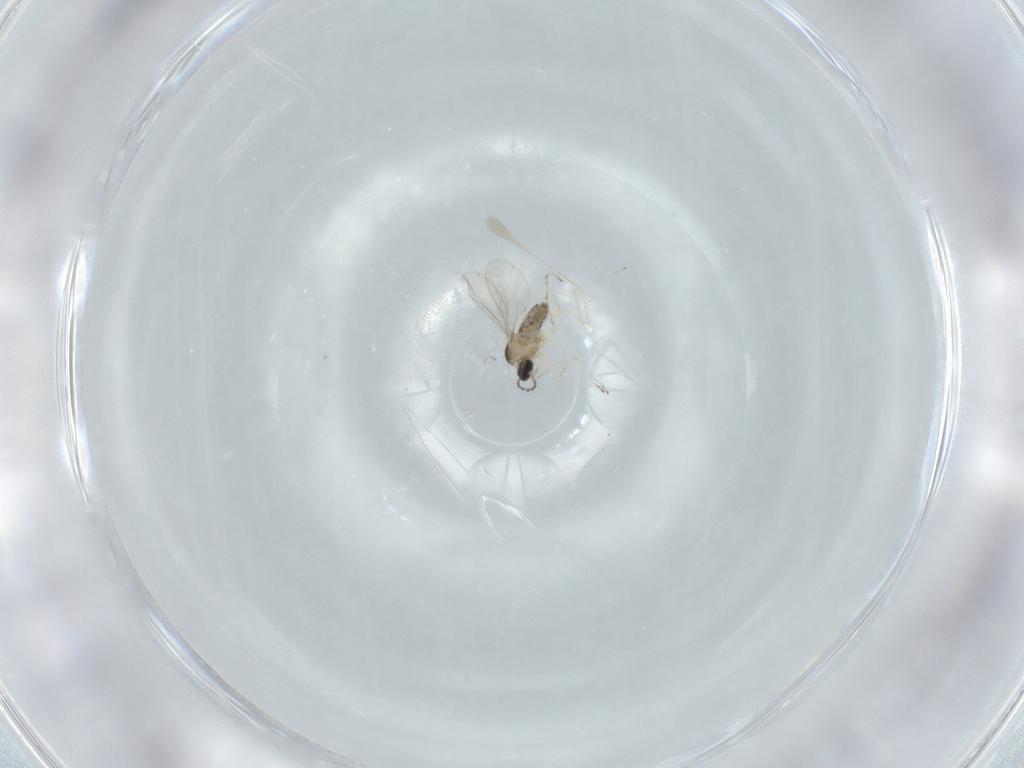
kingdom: Animalia
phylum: Arthropoda
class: Insecta
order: Diptera
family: Cecidomyiidae
